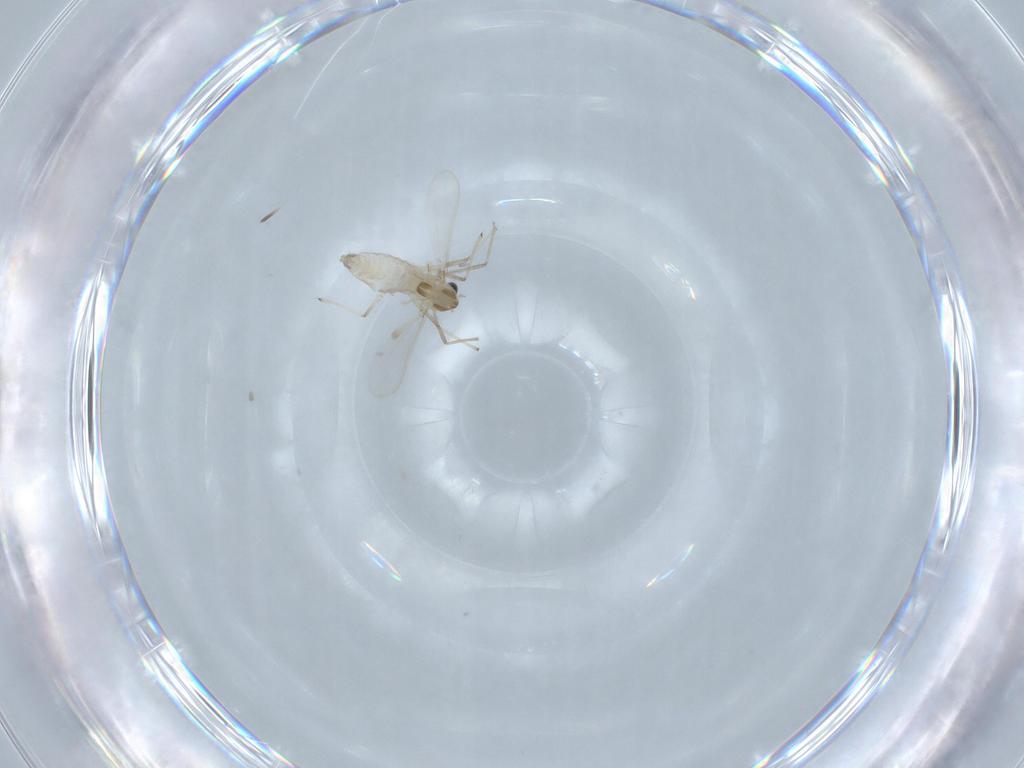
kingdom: Animalia
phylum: Arthropoda
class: Insecta
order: Diptera
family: Chironomidae
